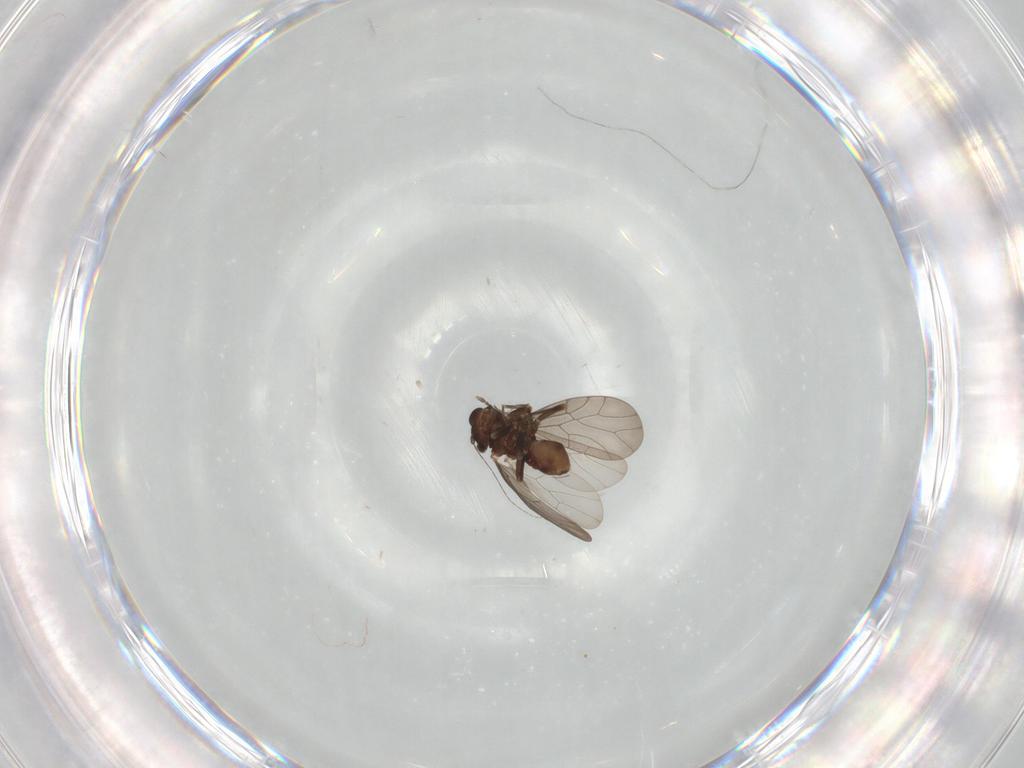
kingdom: Animalia
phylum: Arthropoda
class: Insecta
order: Psocodea
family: Lepidopsocidae
